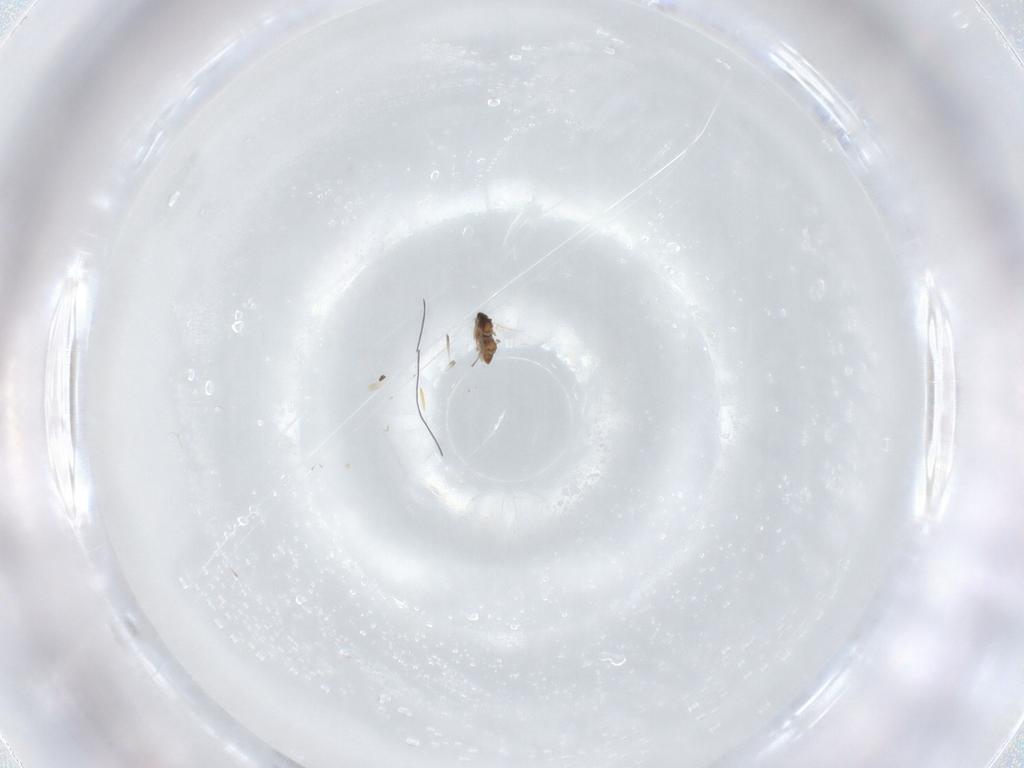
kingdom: Animalia
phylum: Arthropoda
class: Insecta
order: Diptera
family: Cecidomyiidae
